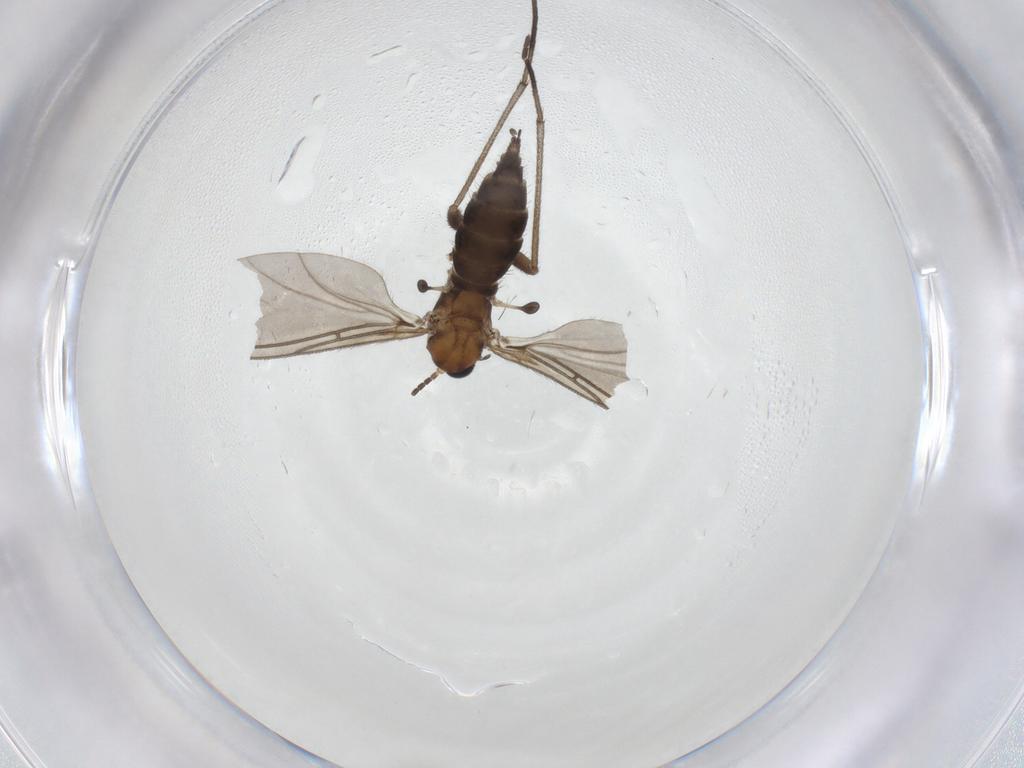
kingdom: Animalia
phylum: Arthropoda
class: Insecta
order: Diptera
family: Sciaridae
